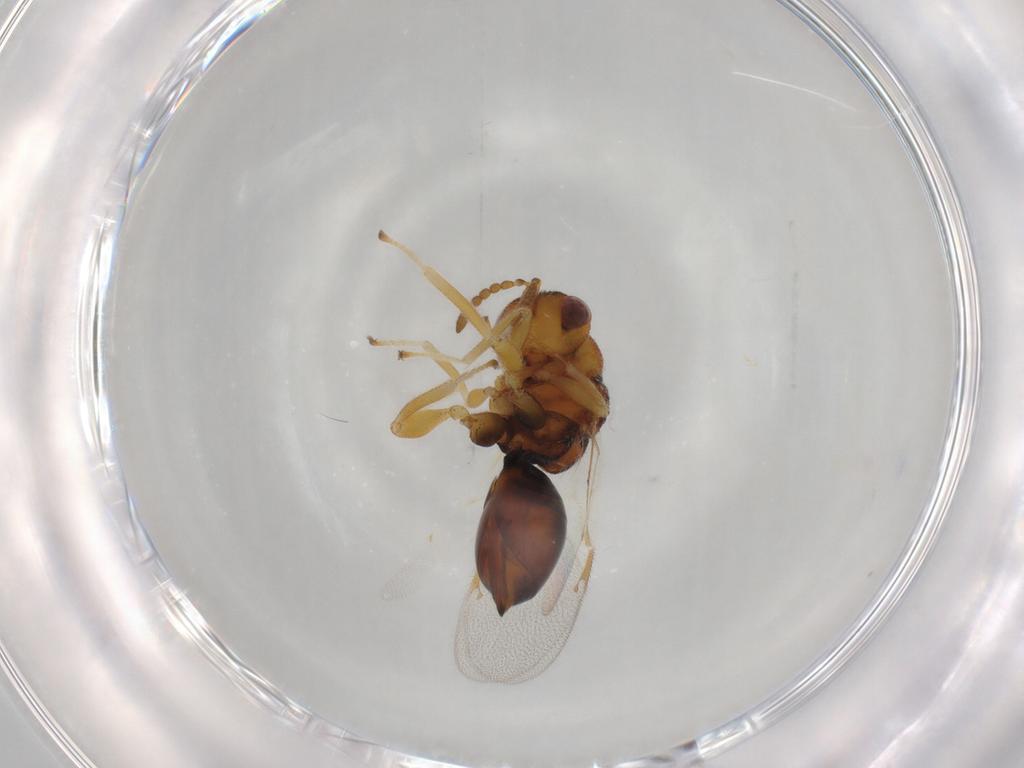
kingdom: Animalia
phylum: Arthropoda
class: Insecta
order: Hymenoptera
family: Eurytomidae
